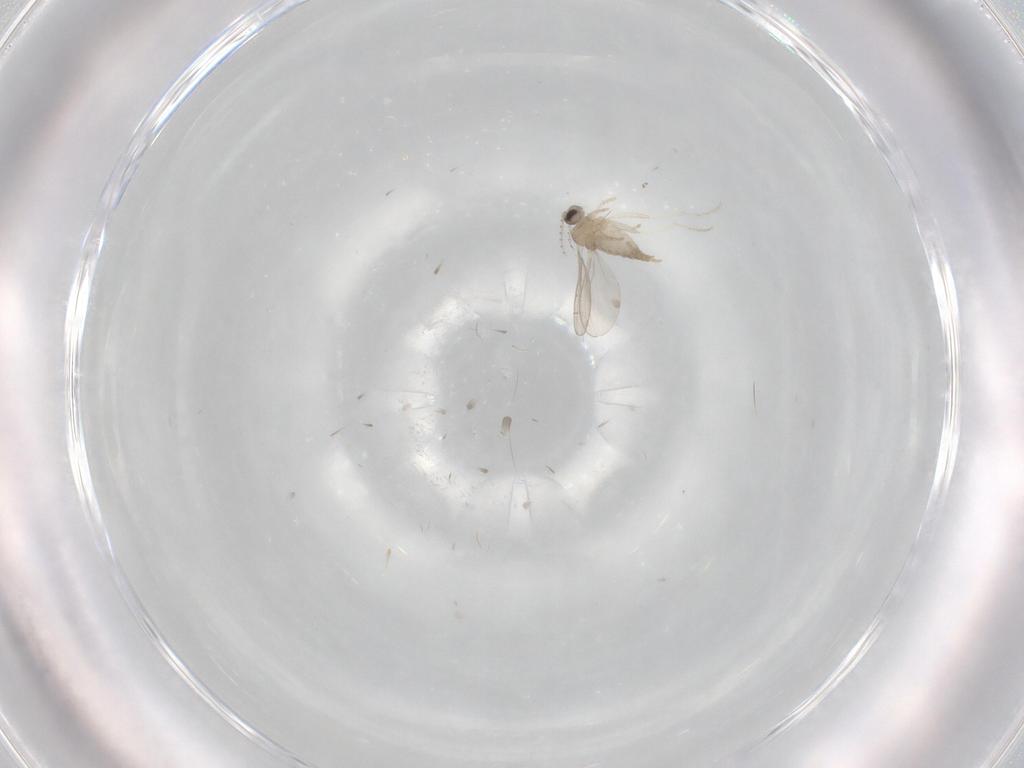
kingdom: Animalia
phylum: Arthropoda
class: Insecta
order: Diptera
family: Cecidomyiidae
